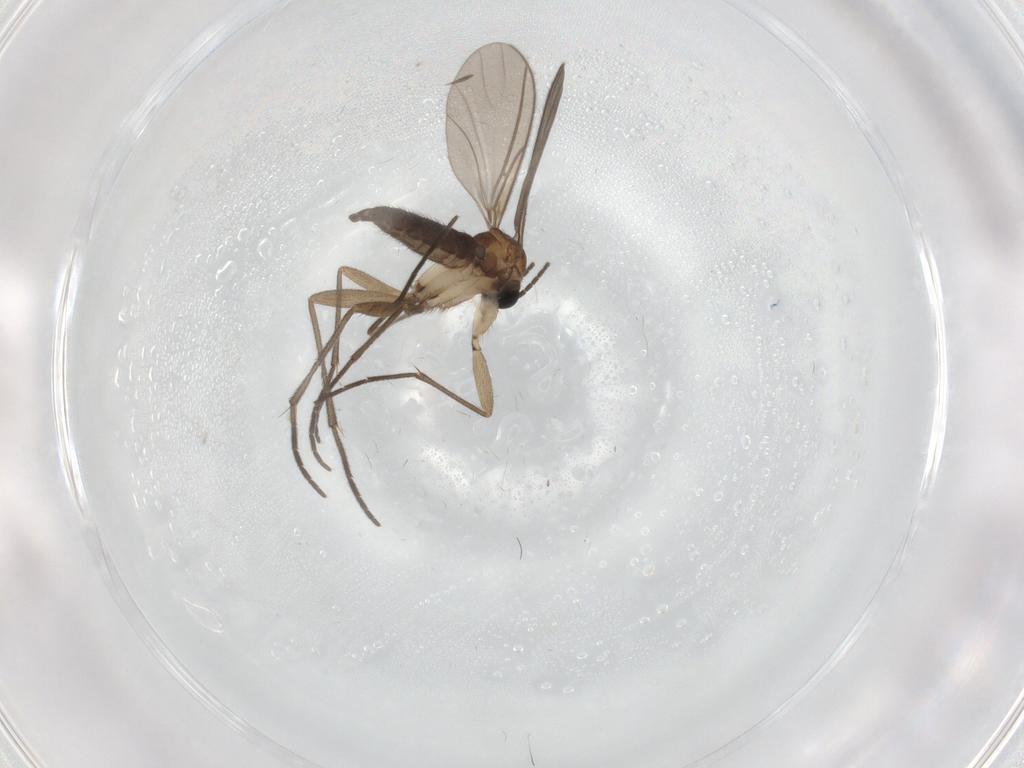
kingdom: Animalia
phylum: Arthropoda
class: Insecta
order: Diptera
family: Sciaridae
